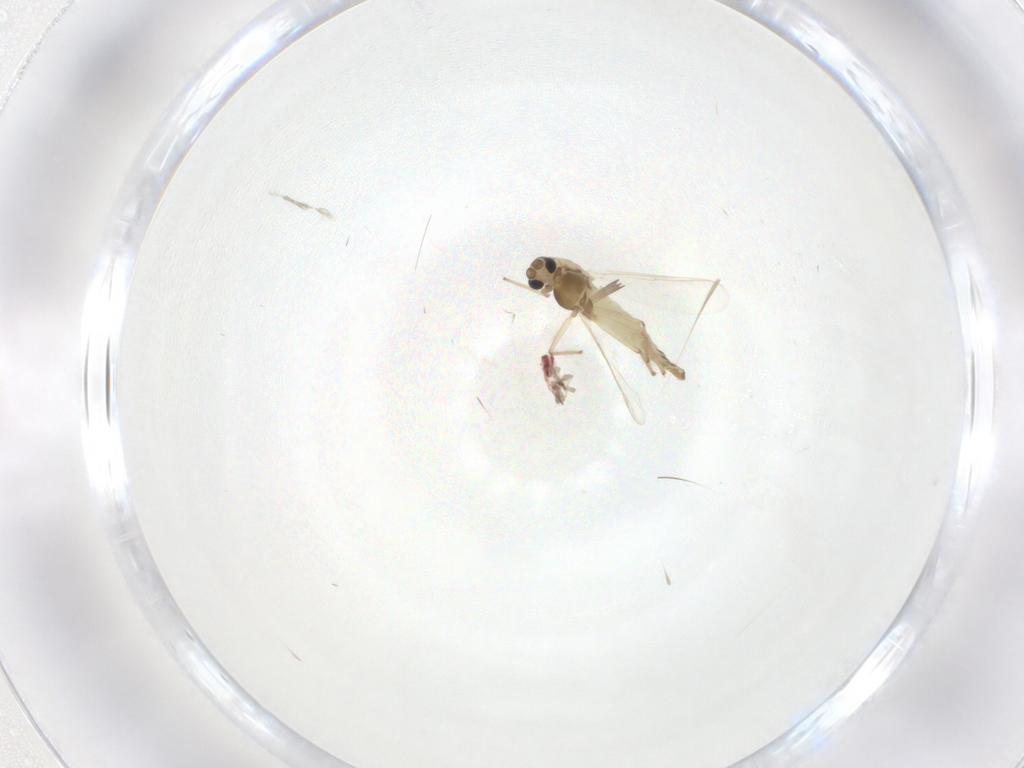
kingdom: Animalia
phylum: Arthropoda
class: Insecta
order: Diptera
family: Chironomidae
